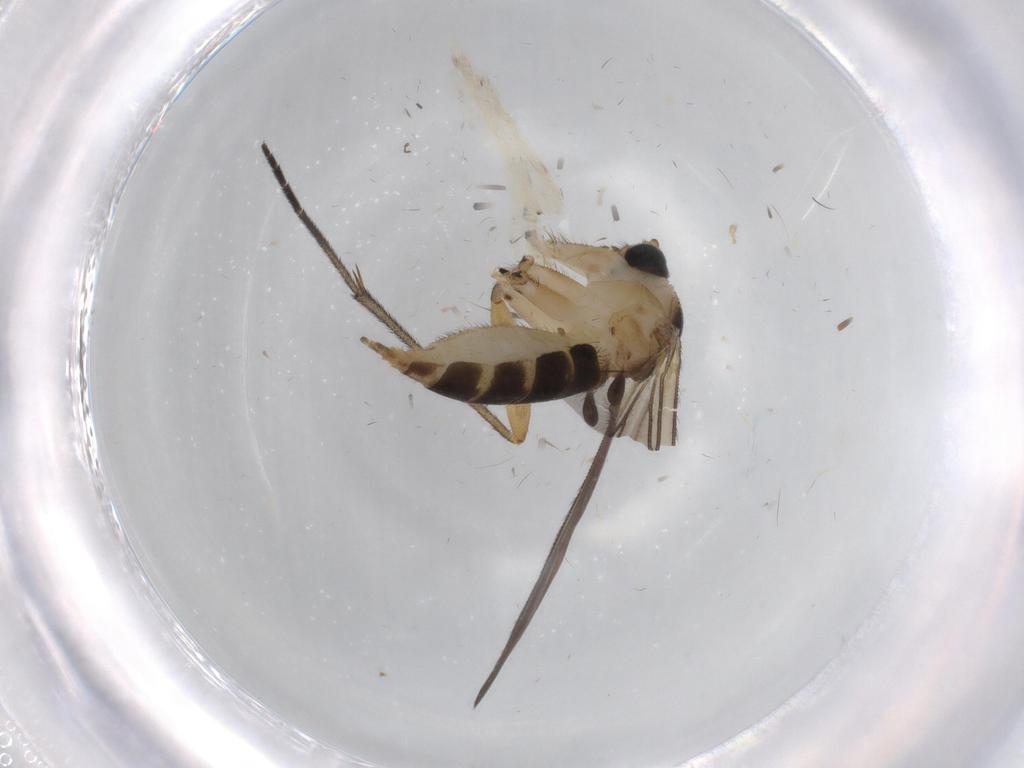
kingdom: Animalia
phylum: Arthropoda
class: Insecta
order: Diptera
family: Sciaridae
